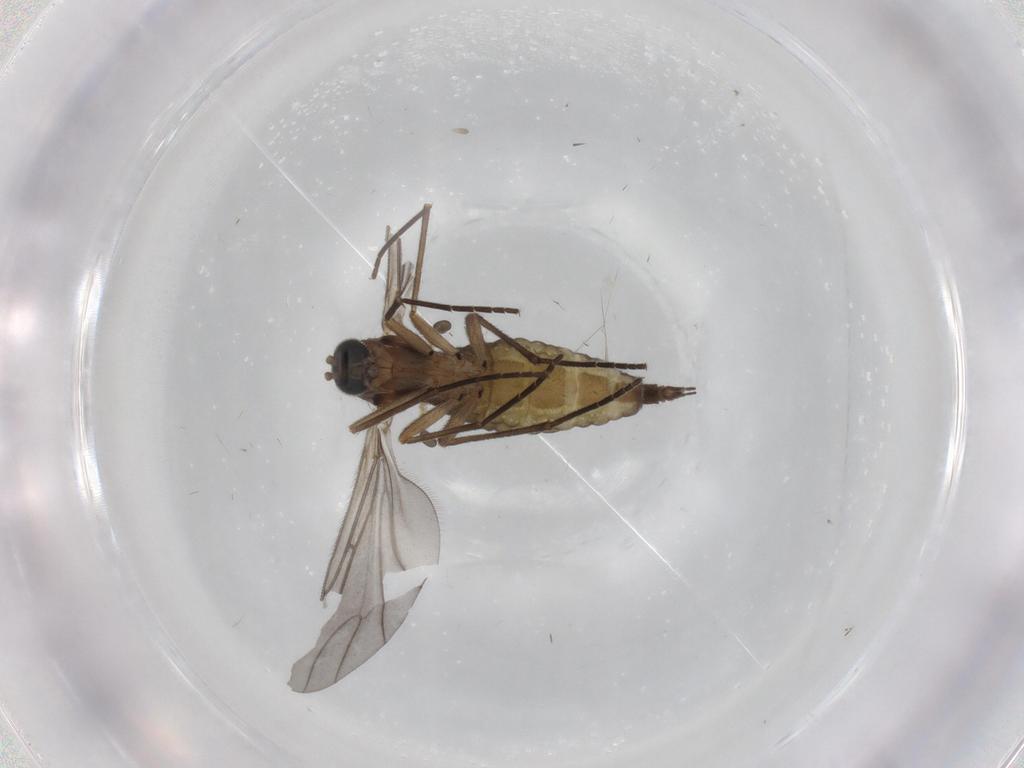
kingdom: Animalia
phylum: Arthropoda
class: Insecta
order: Diptera
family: Sciaridae
